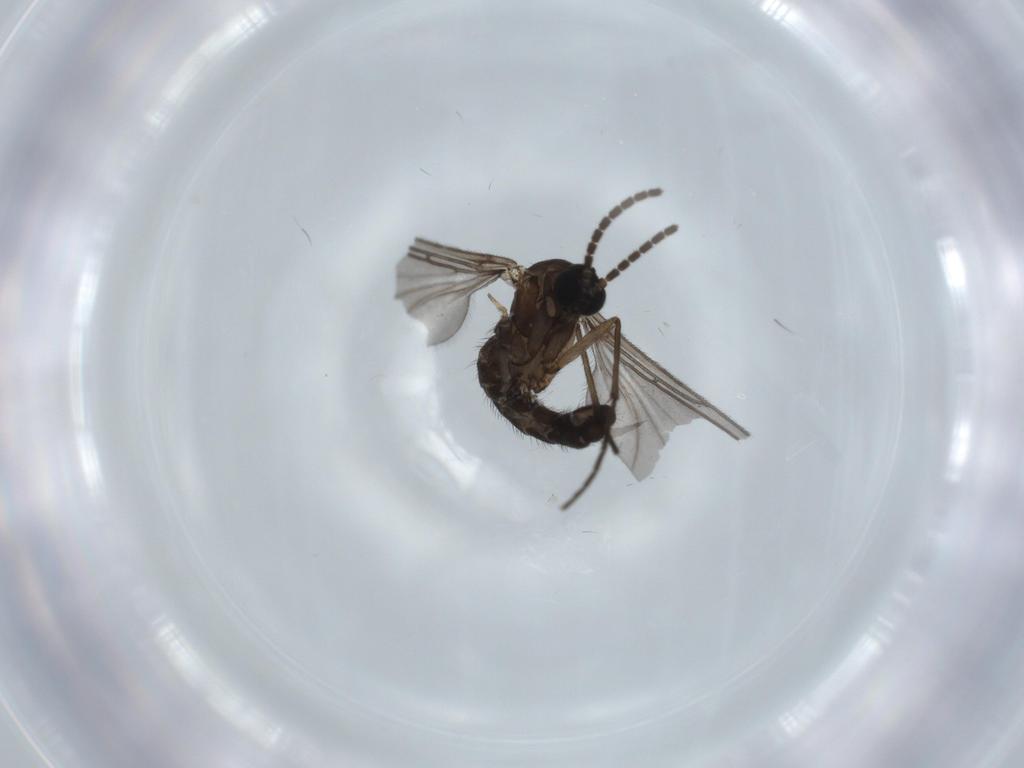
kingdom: Animalia
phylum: Arthropoda
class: Insecta
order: Diptera
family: Sciaridae
